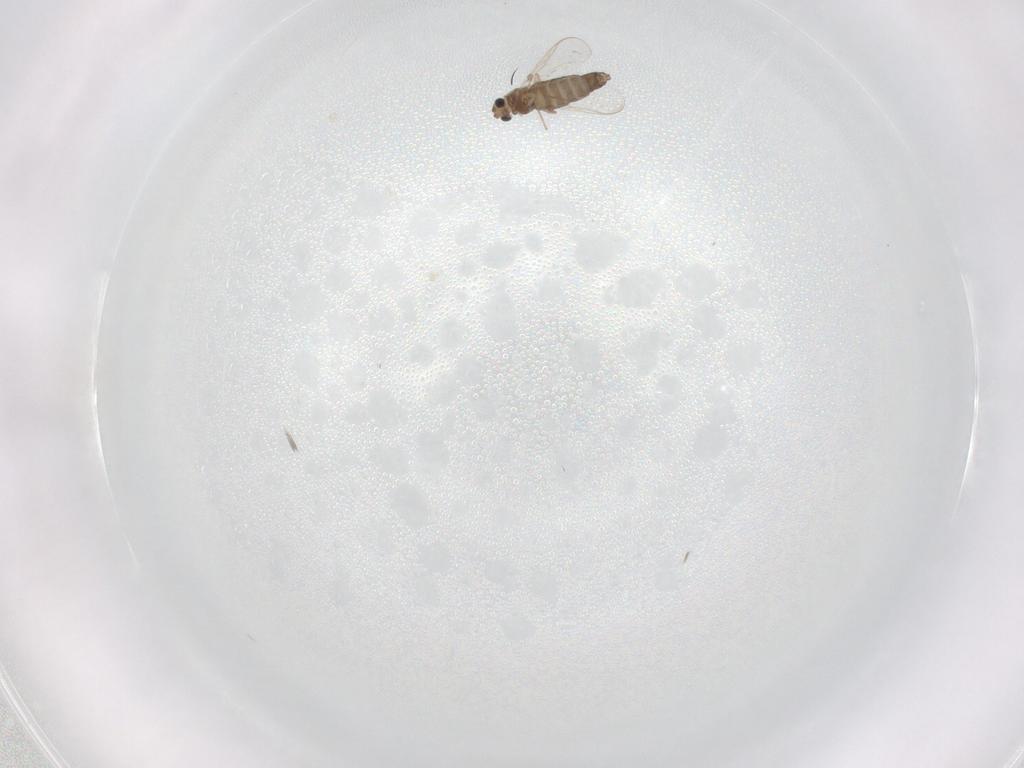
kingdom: Animalia
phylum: Arthropoda
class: Insecta
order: Diptera
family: Chironomidae
